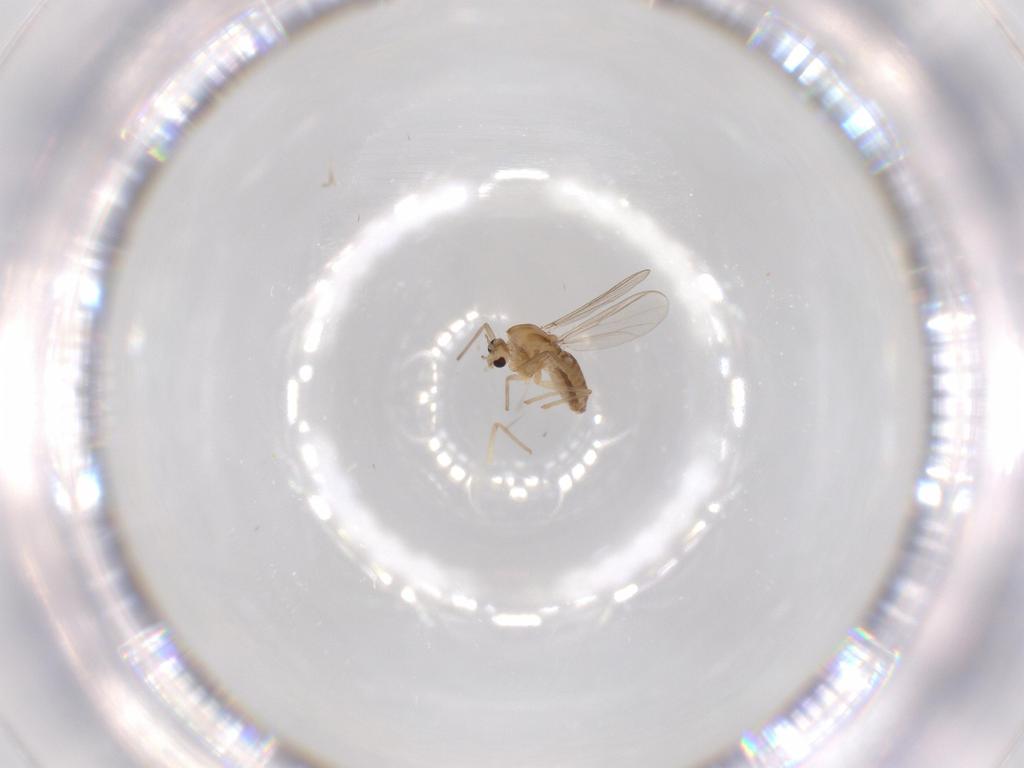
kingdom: Animalia
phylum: Arthropoda
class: Insecta
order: Diptera
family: Chironomidae
